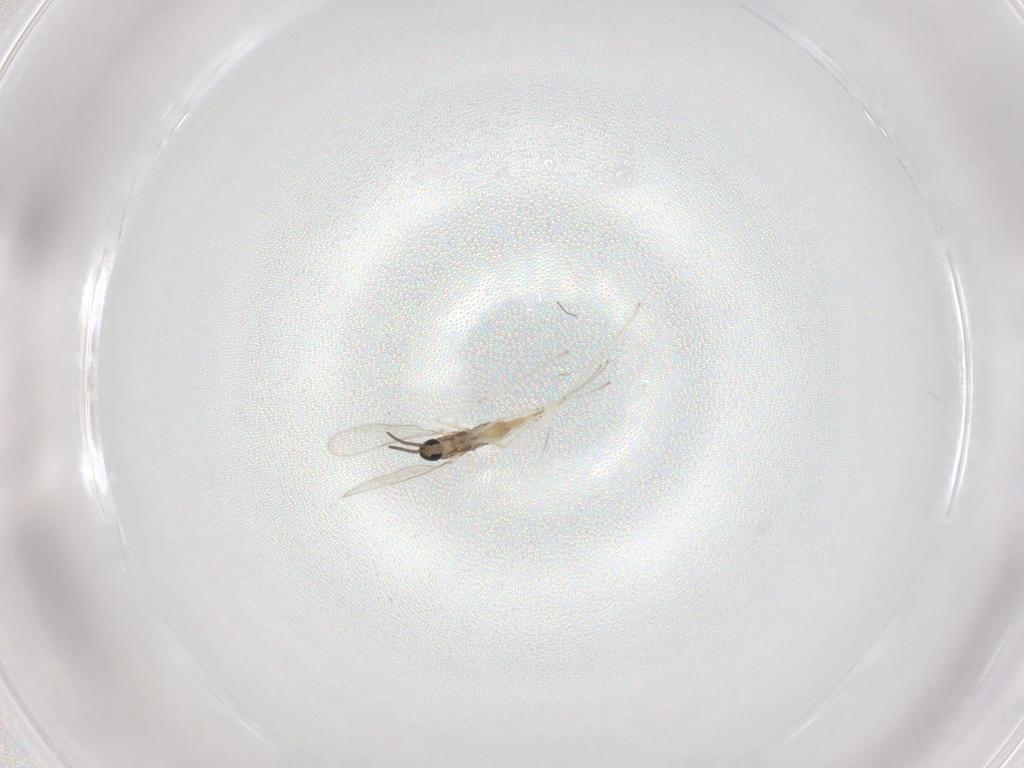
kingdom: Animalia
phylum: Arthropoda
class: Insecta
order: Diptera
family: Cecidomyiidae
